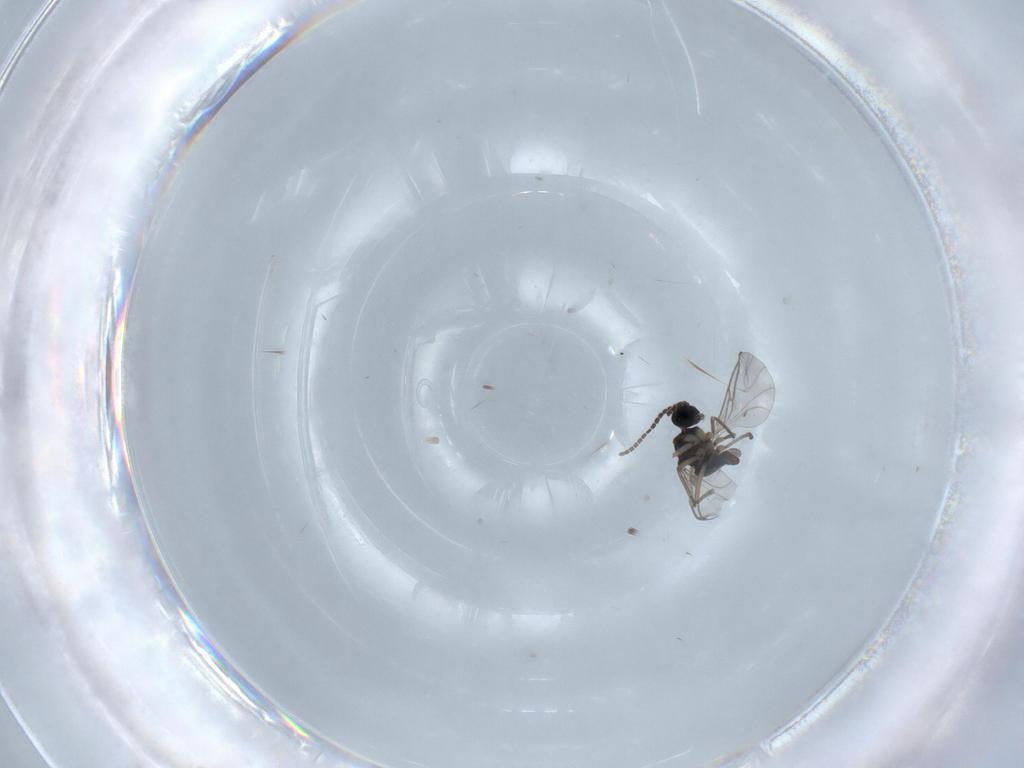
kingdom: Animalia
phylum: Arthropoda
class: Insecta
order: Diptera
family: Sciaridae
